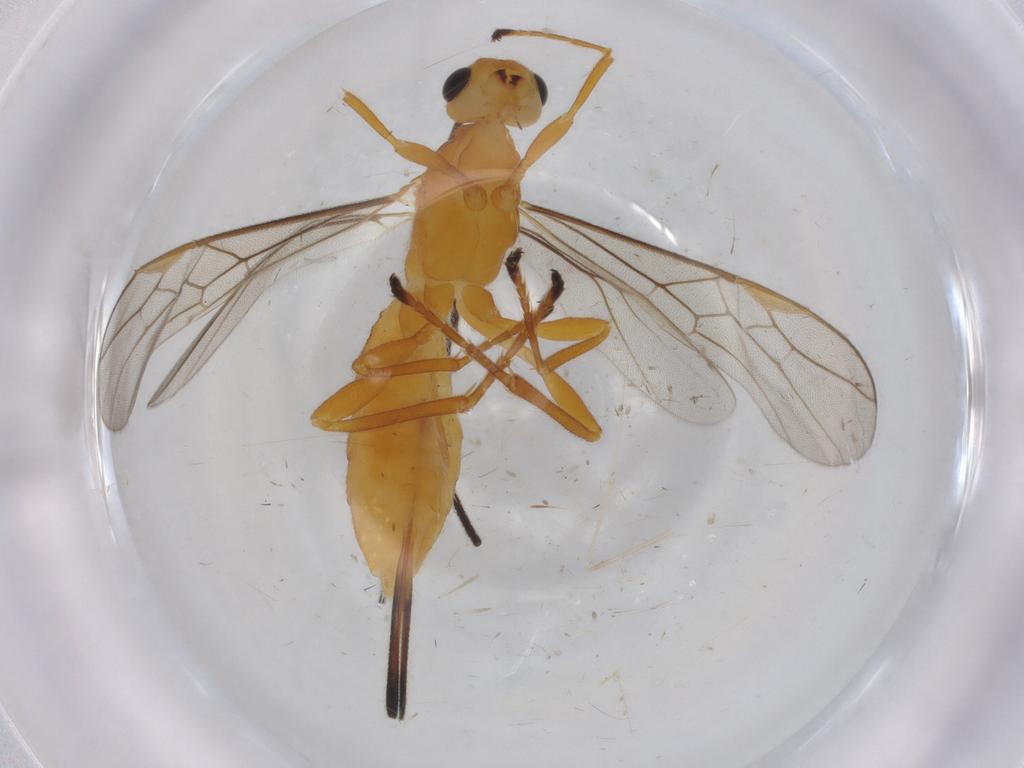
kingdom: Animalia
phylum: Arthropoda
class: Insecta
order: Hymenoptera
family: Braconidae
